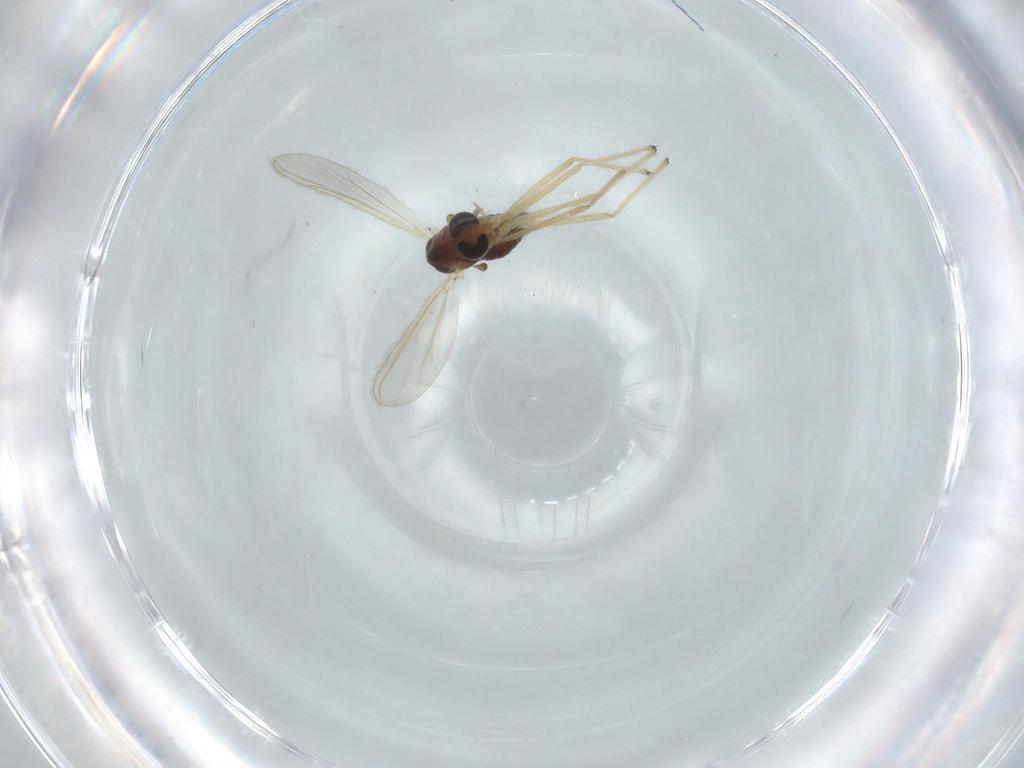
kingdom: Animalia
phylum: Arthropoda
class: Insecta
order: Diptera
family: Chironomidae
